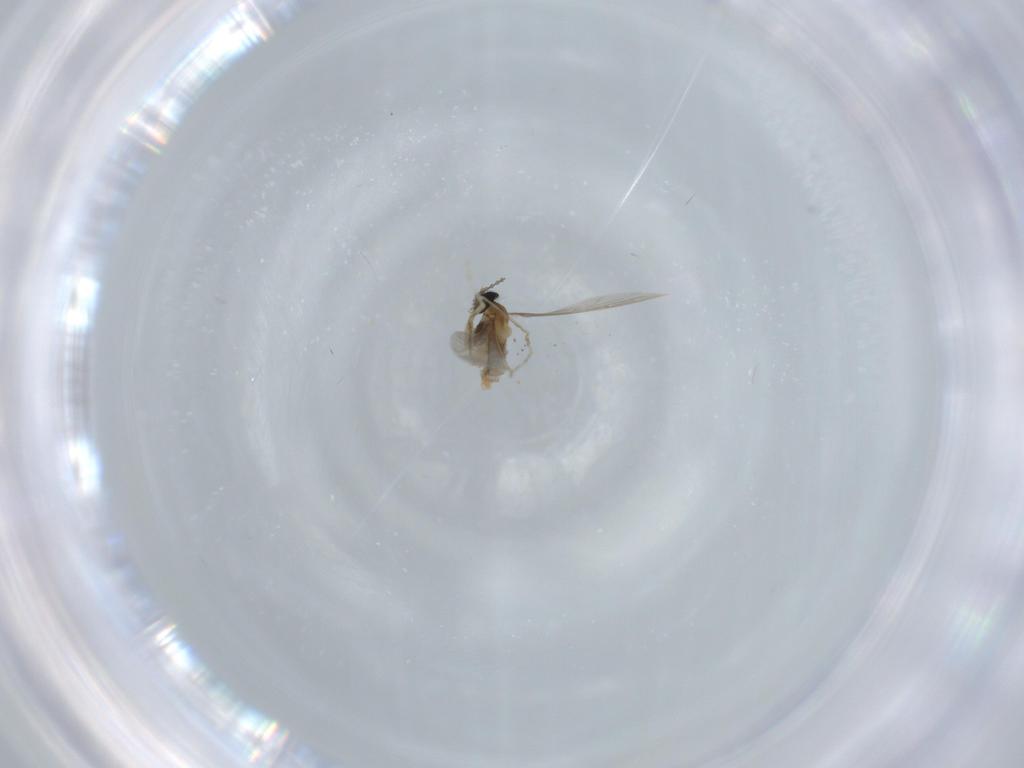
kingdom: Animalia
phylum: Arthropoda
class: Insecta
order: Diptera
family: Cecidomyiidae
